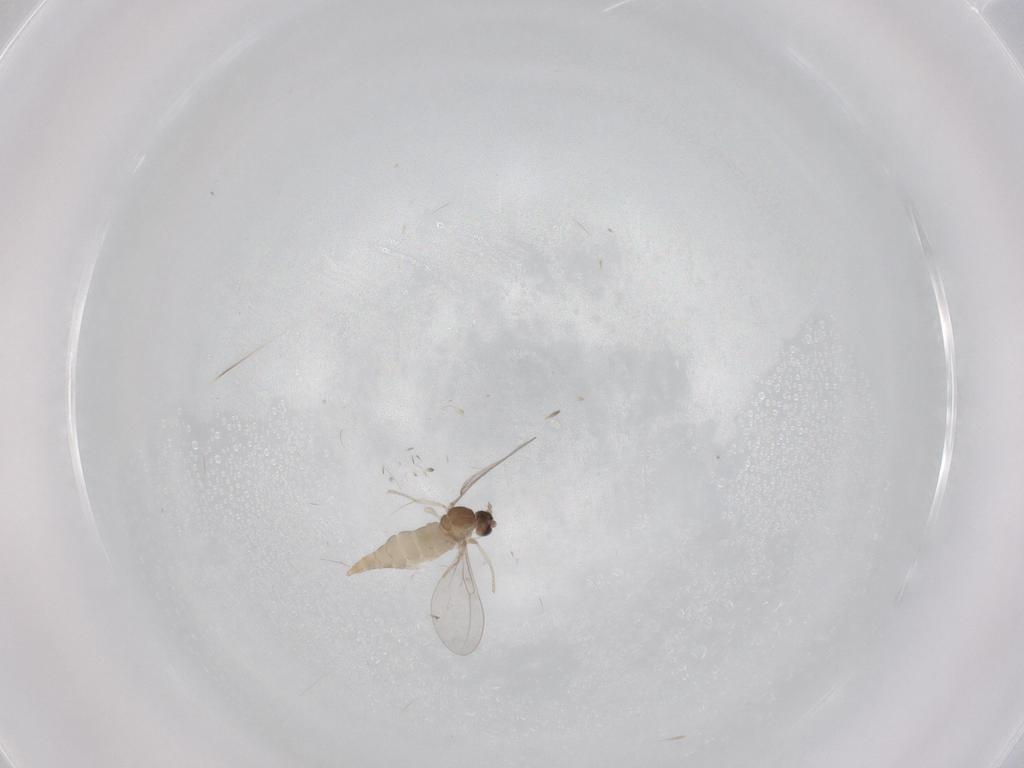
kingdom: Animalia
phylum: Arthropoda
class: Insecta
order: Diptera
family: Cecidomyiidae
